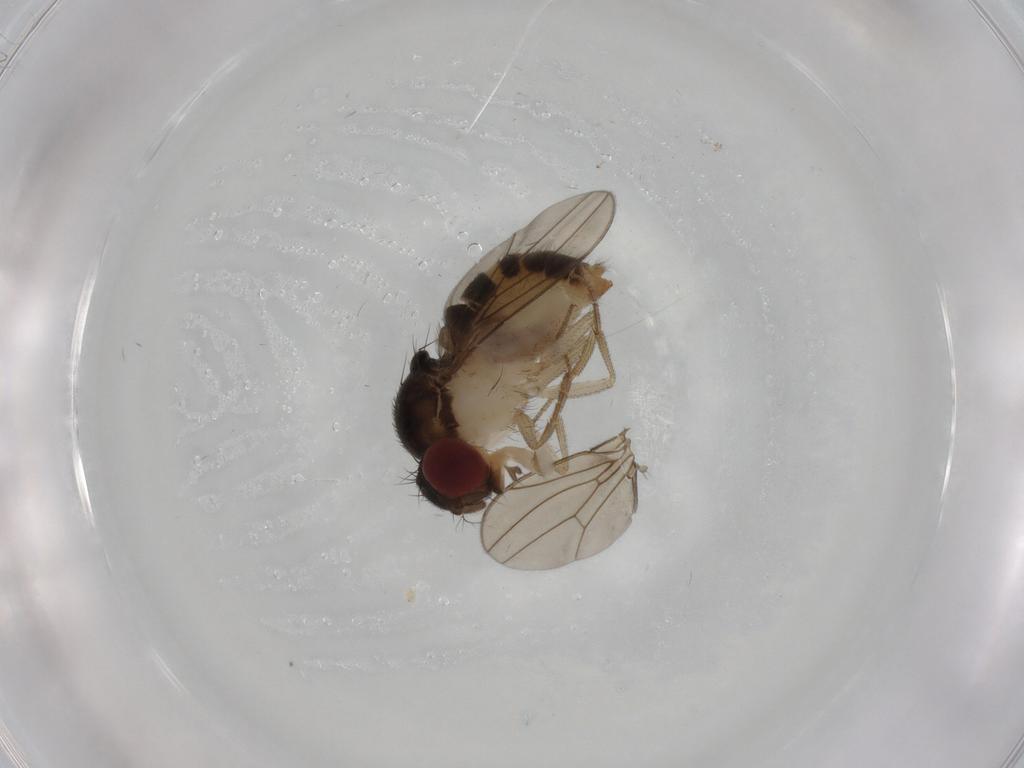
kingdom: Animalia
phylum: Arthropoda
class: Insecta
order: Diptera
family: Drosophilidae
